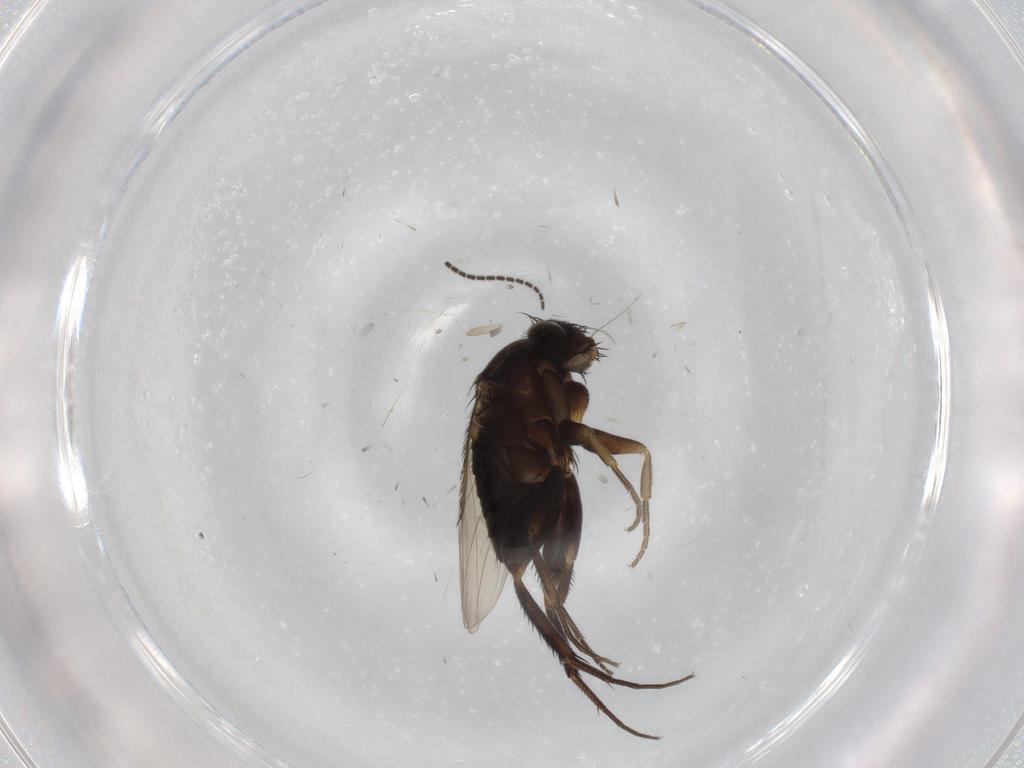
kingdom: Animalia
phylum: Arthropoda
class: Insecta
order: Diptera
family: Phoridae
